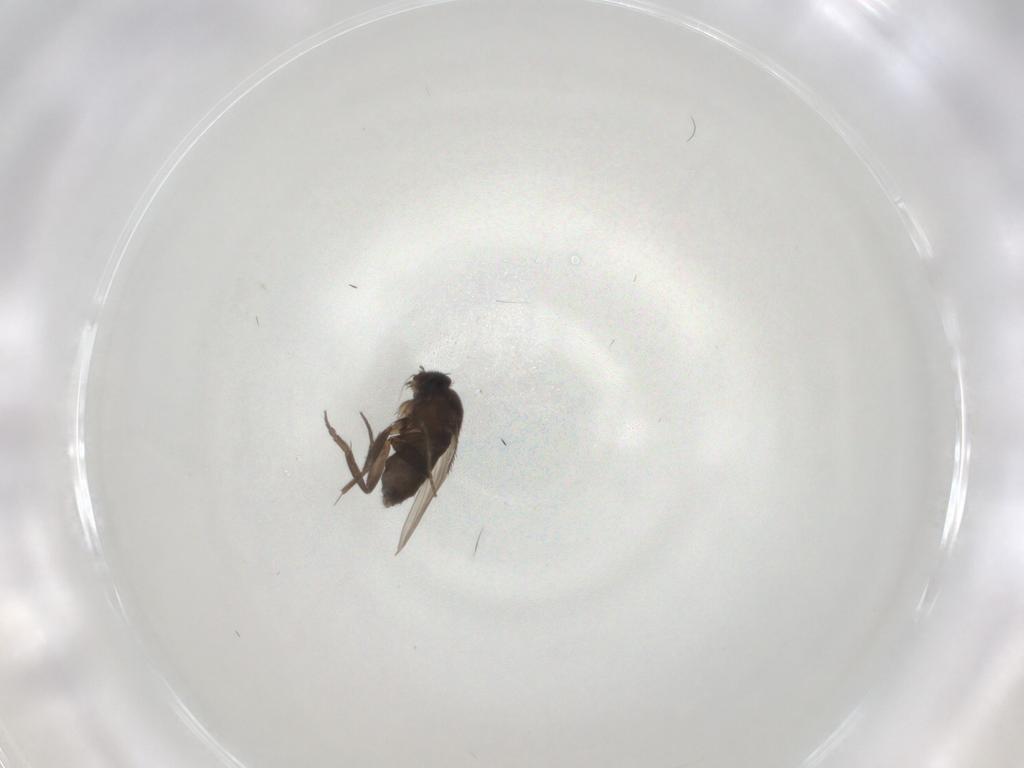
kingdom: Animalia
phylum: Arthropoda
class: Insecta
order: Diptera
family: Phoridae
